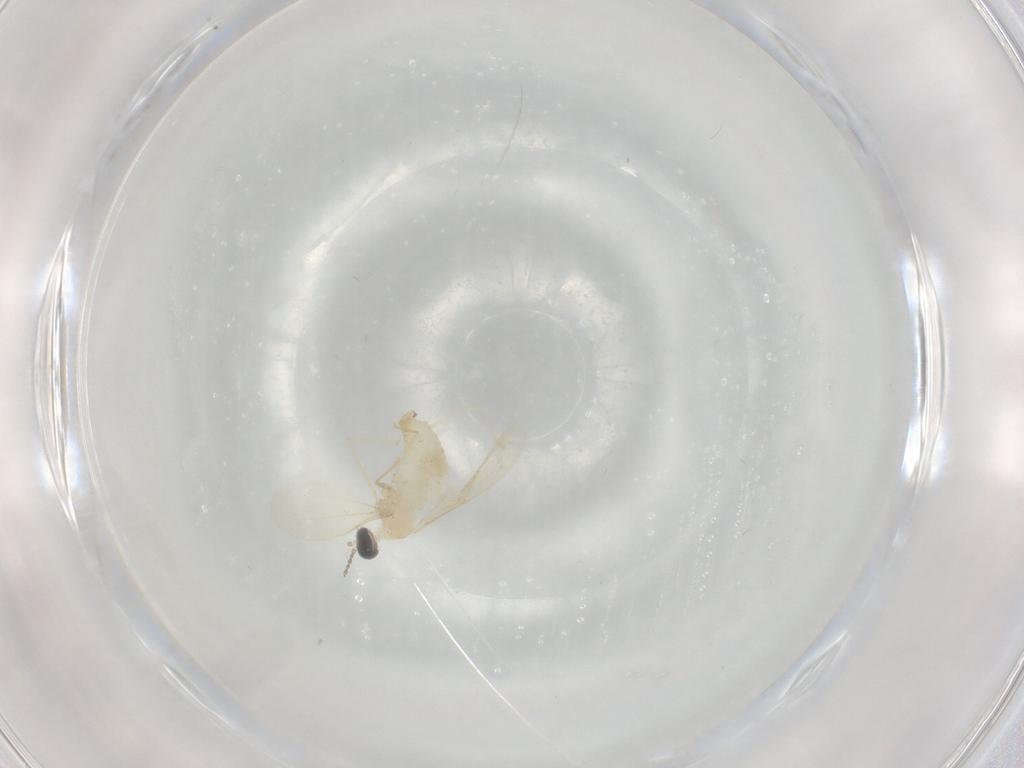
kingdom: Animalia
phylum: Arthropoda
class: Insecta
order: Diptera
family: Cecidomyiidae
